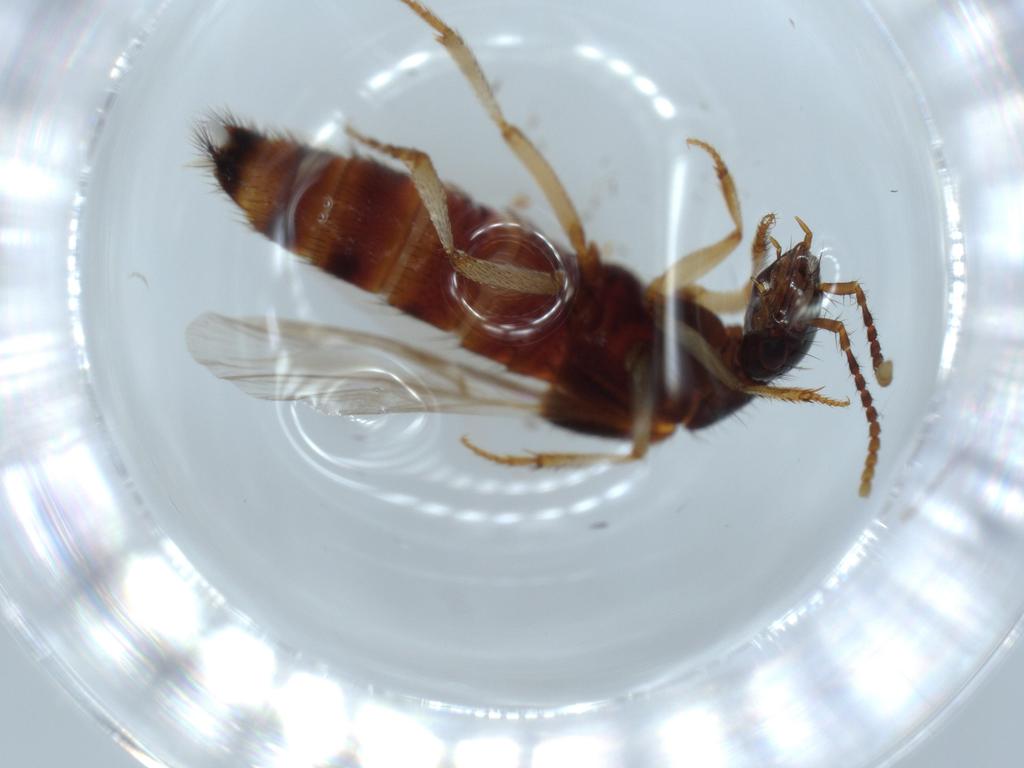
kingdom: Animalia
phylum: Arthropoda
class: Insecta
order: Coleoptera
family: Staphylinidae
